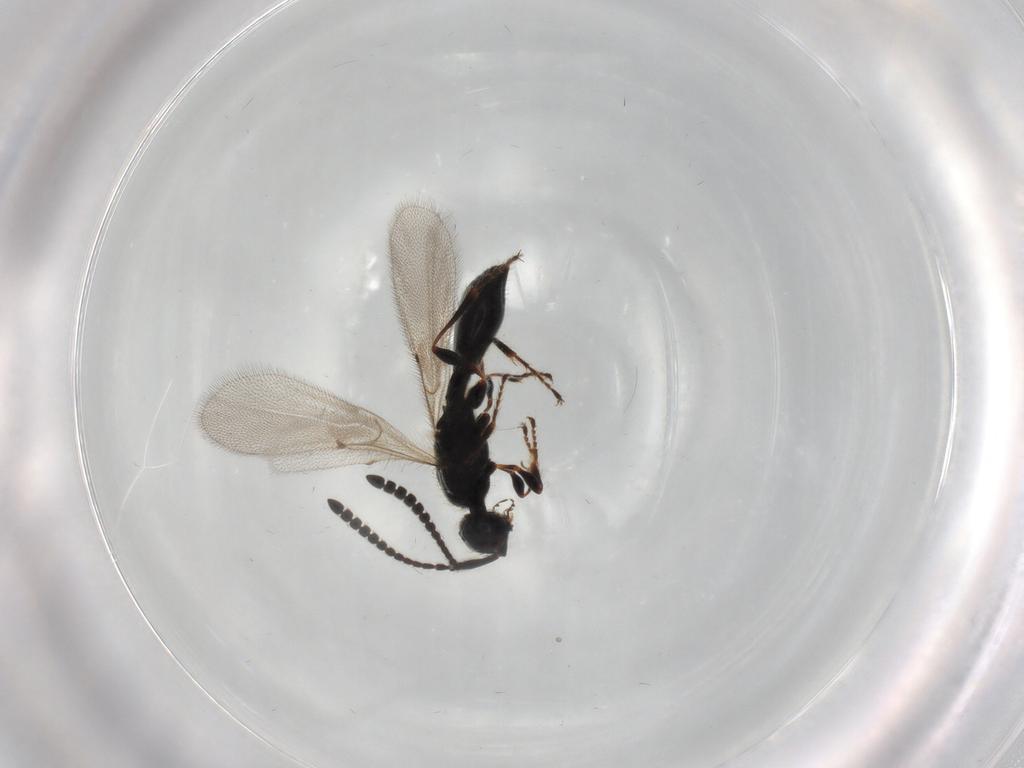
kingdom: Animalia
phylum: Arthropoda
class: Insecta
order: Hymenoptera
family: Diapriidae
